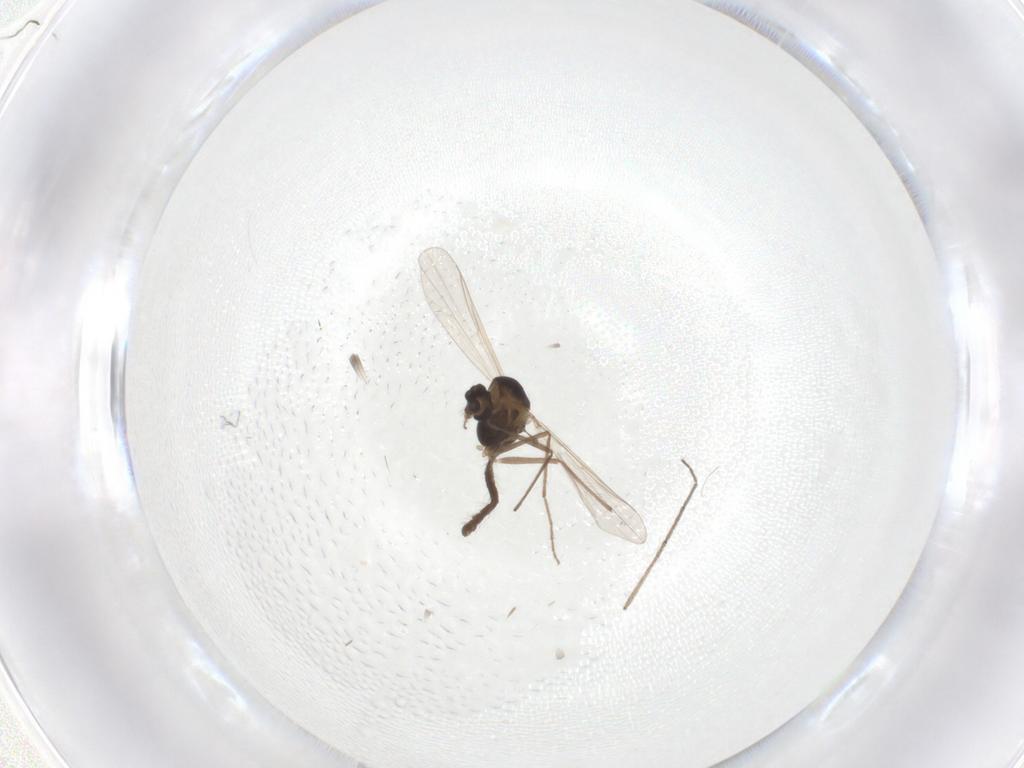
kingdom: Animalia
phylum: Arthropoda
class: Insecta
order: Diptera
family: Chironomidae
